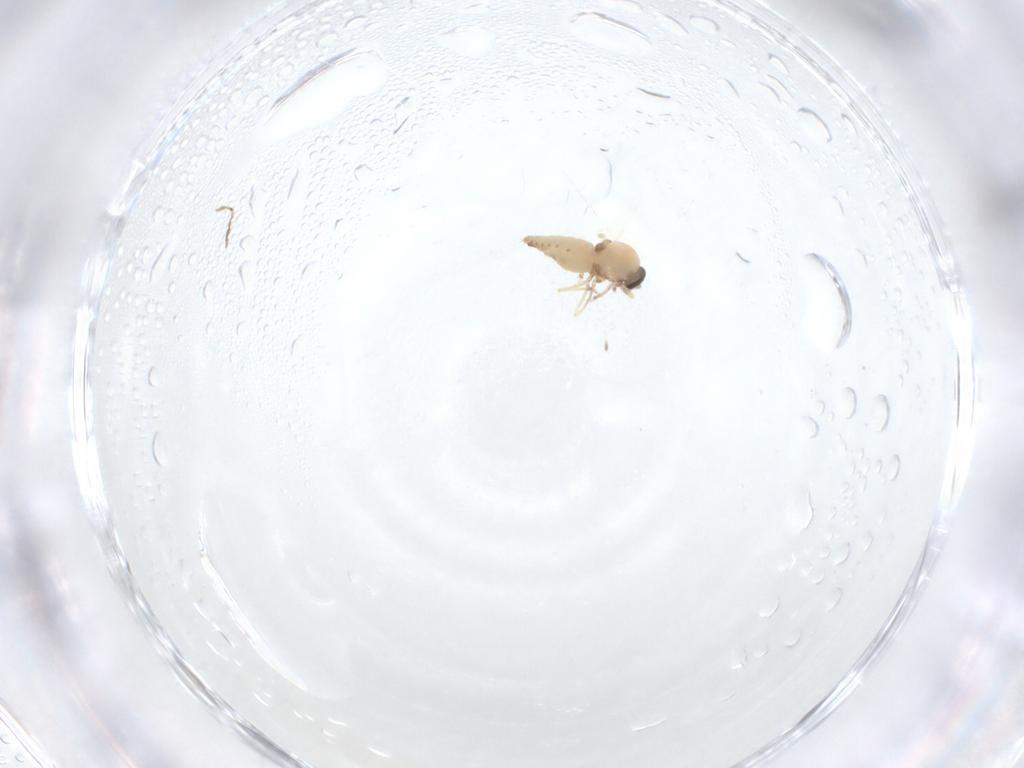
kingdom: Animalia
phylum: Arthropoda
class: Insecta
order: Diptera
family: Ceratopogonidae
